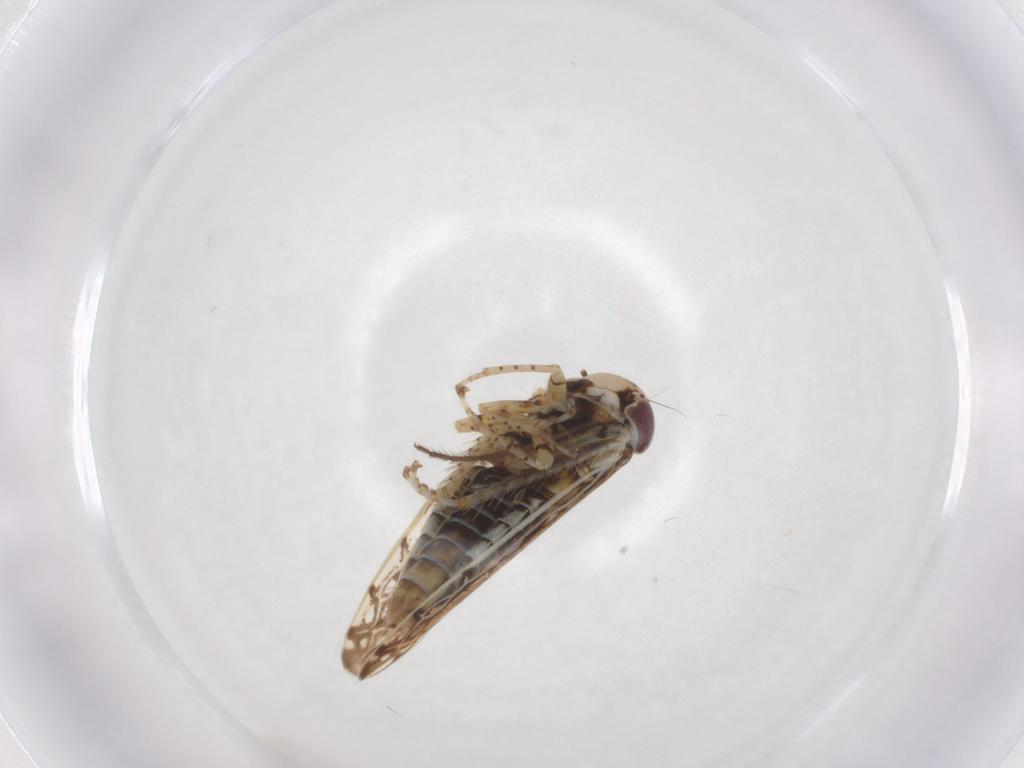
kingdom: Animalia
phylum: Arthropoda
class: Insecta
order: Hemiptera
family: Cicadellidae
